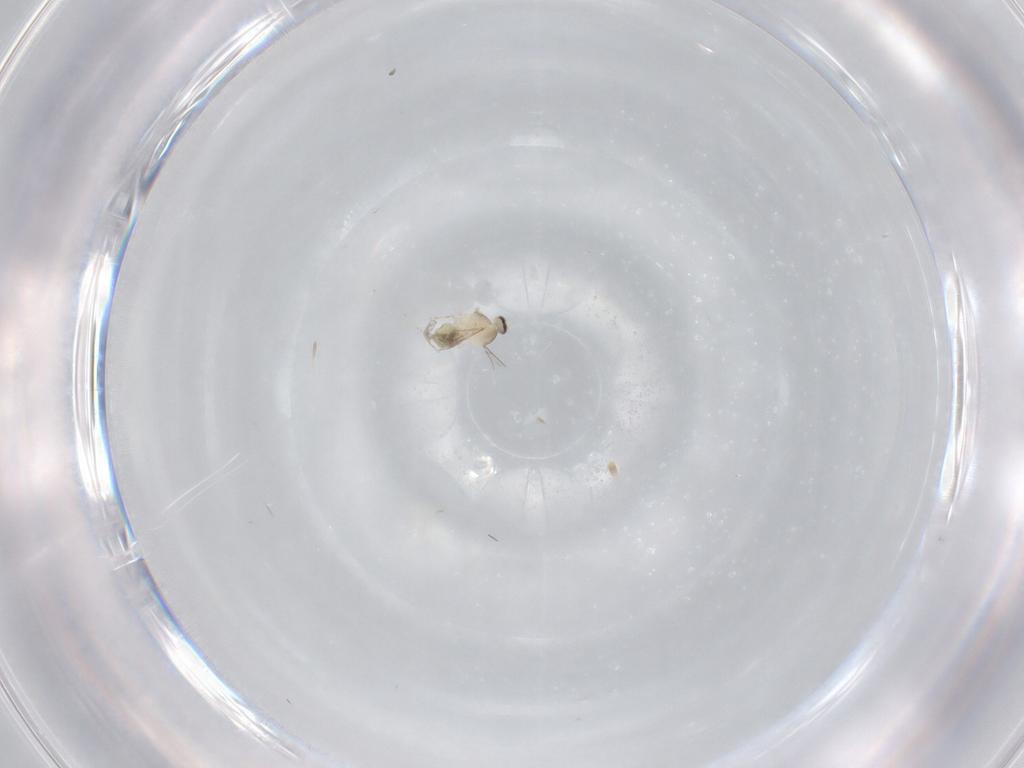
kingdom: Animalia
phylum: Arthropoda
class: Insecta
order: Diptera
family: Cecidomyiidae
